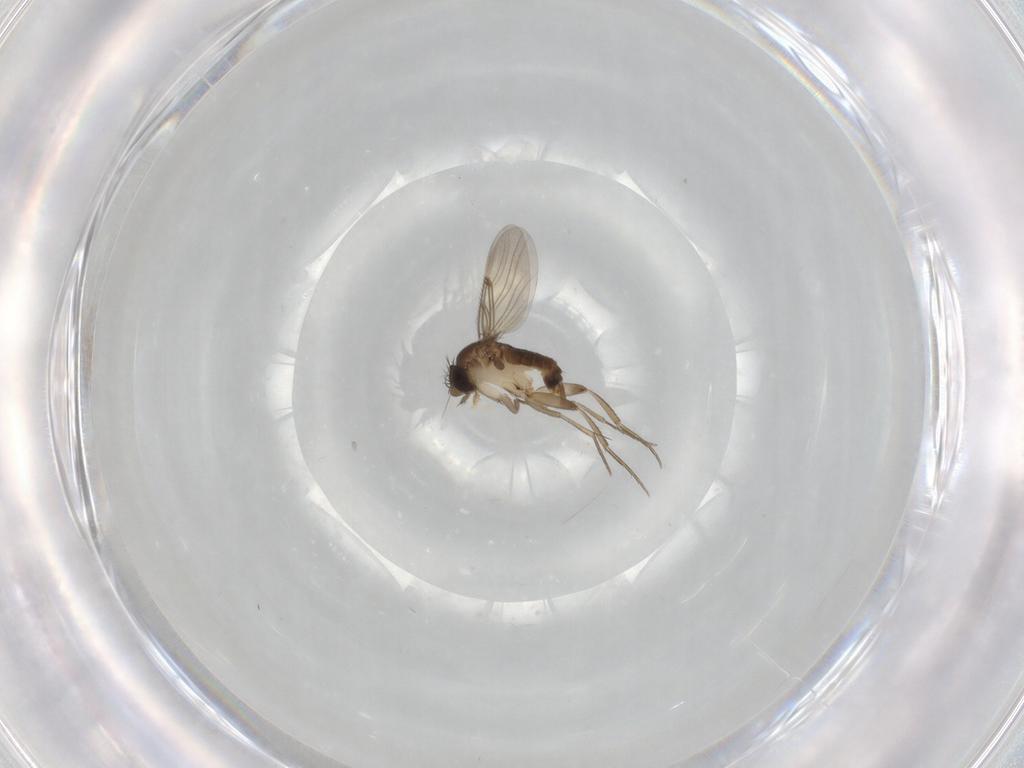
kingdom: Animalia
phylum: Arthropoda
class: Insecta
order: Diptera
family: Phoridae
